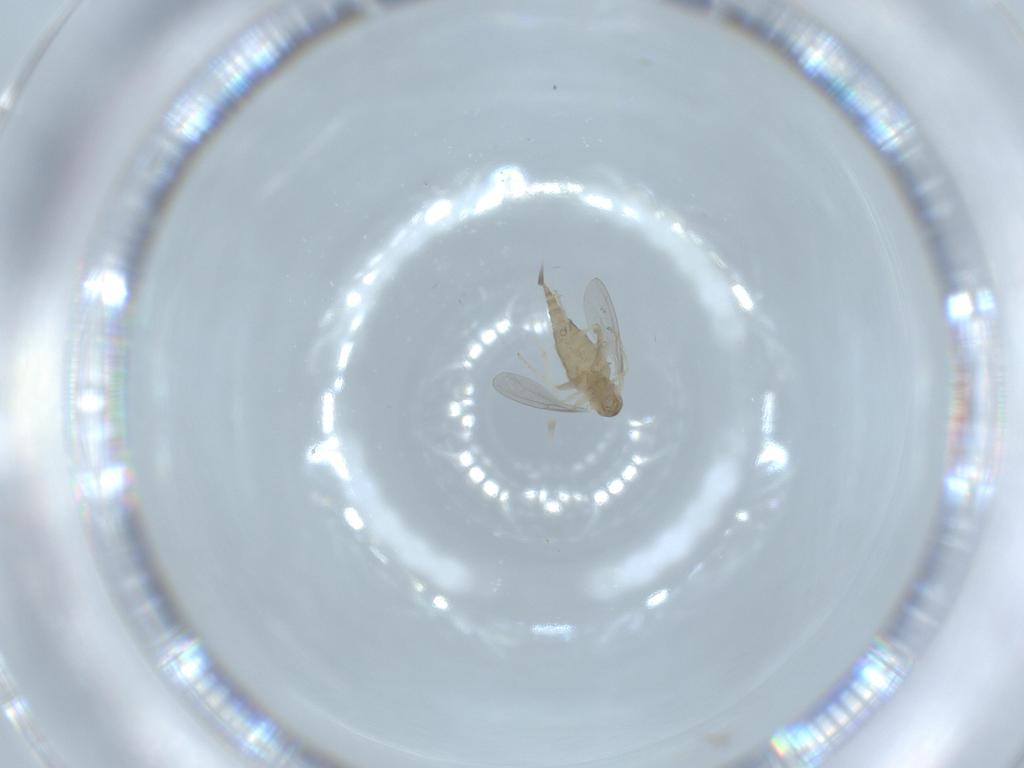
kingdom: Animalia
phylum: Arthropoda
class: Insecta
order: Diptera
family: Cecidomyiidae
